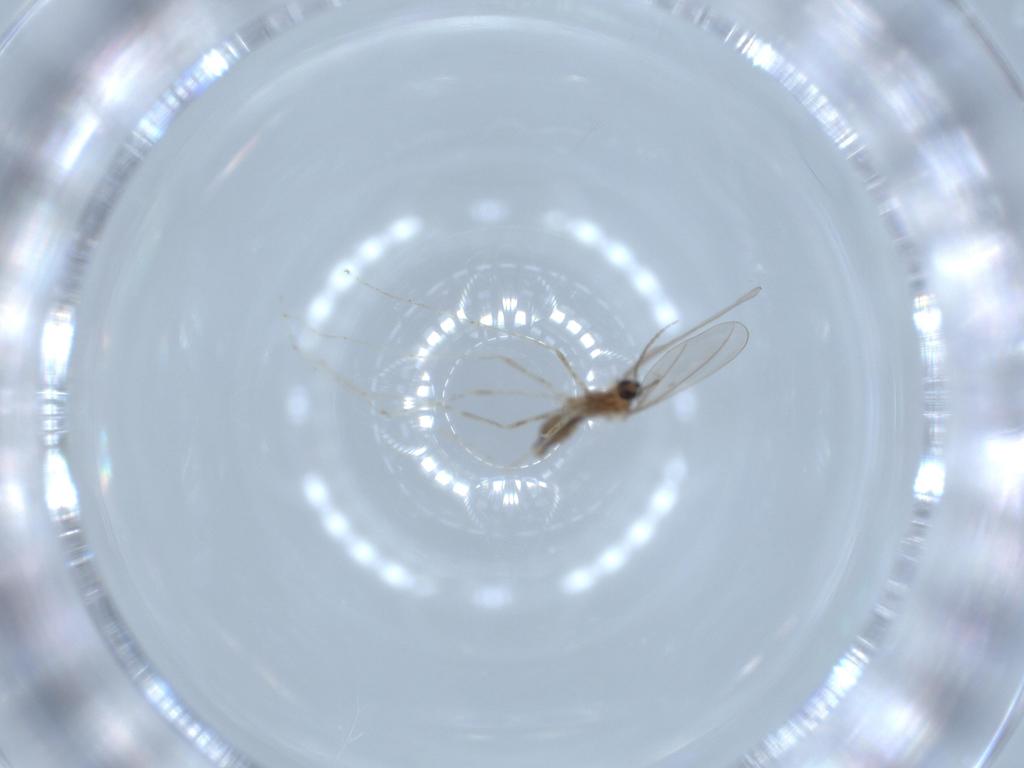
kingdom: Animalia
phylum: Arthropoda
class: Insecta
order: Diptera
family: Cecidomyiidae
